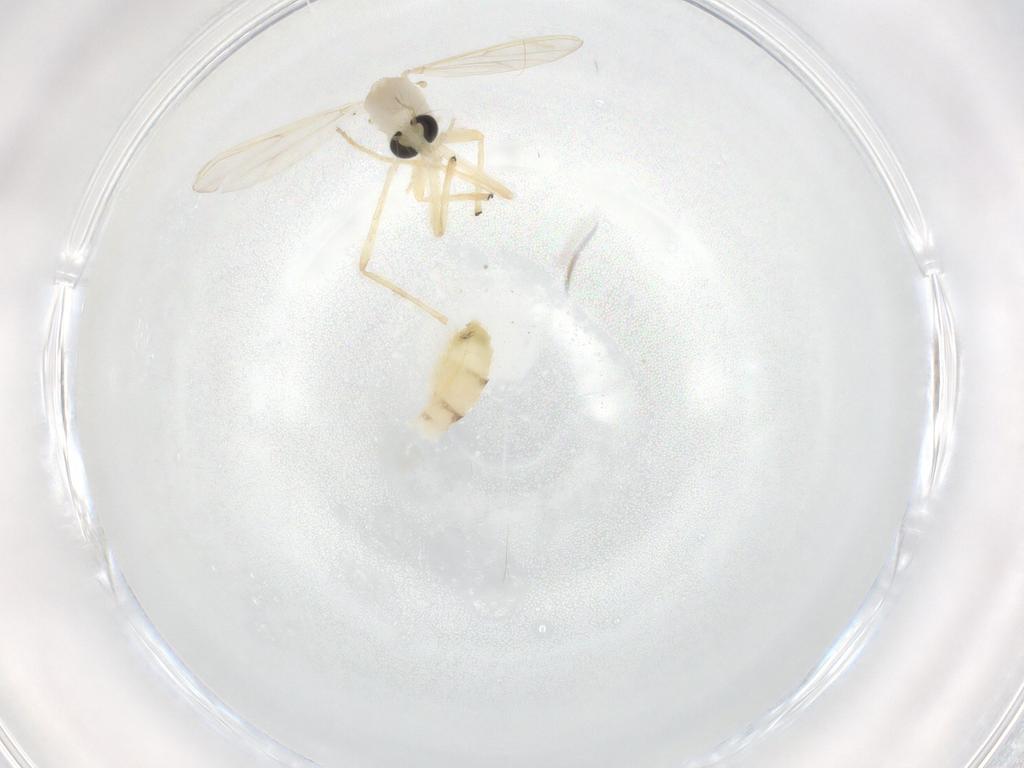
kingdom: Animalia
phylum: Arthropoda
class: Insecta
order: Diptera
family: Chironomidae
